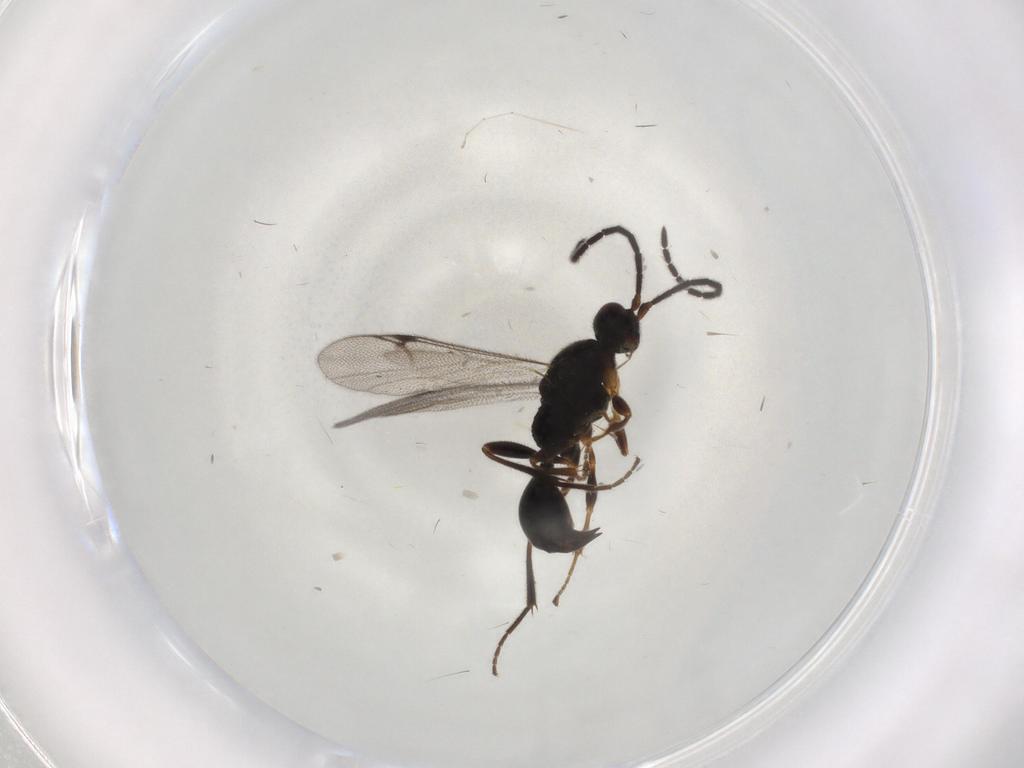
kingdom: Animalia
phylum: Arthropoda
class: Insecta
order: Hymenoptera
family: Proctotrupidae
